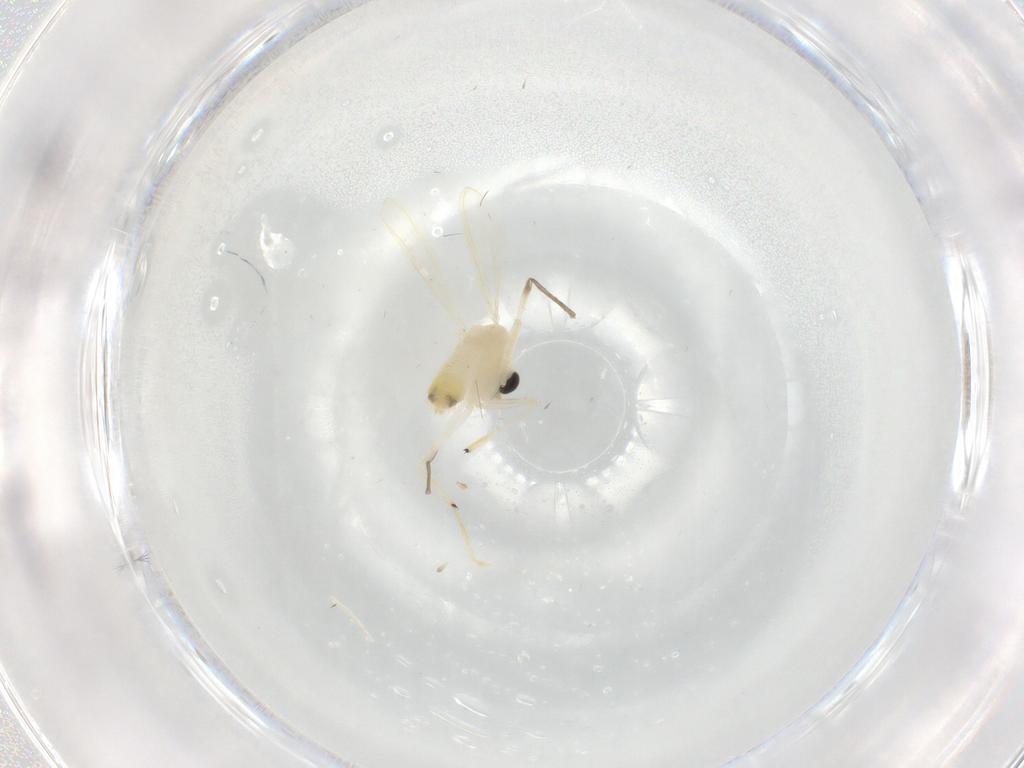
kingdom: Animalia
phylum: Arthropoda
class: Insecta
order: Diptera
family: Chironomidae
